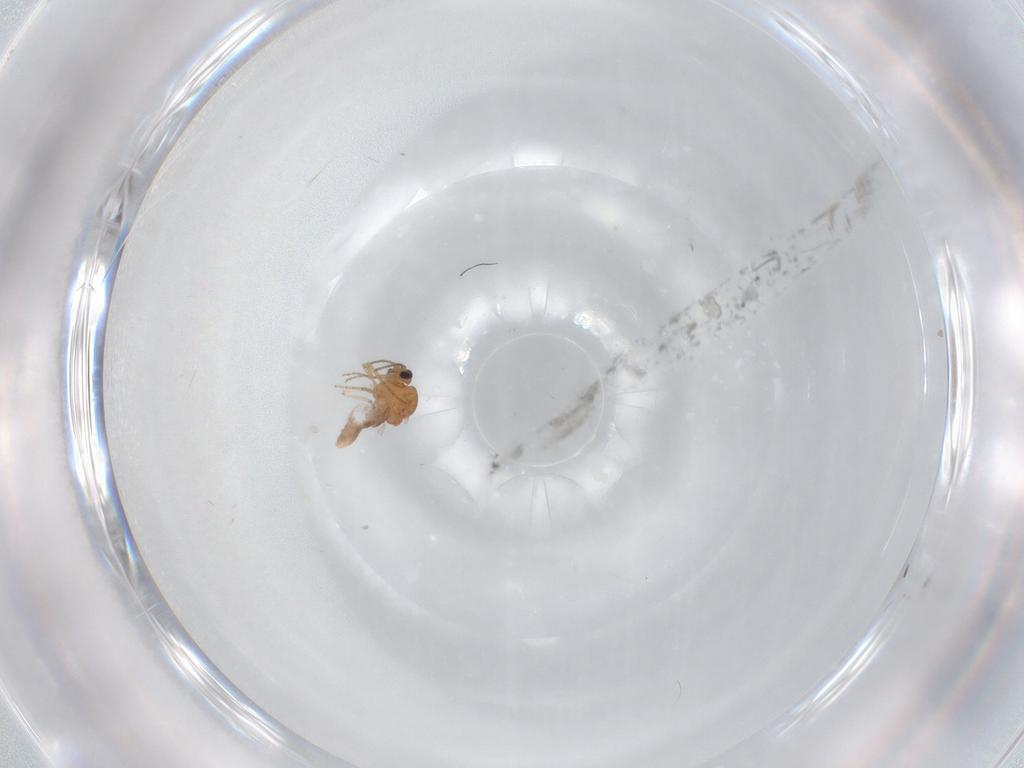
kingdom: Animalia
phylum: Arthropoda
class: Insecta
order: Diptera
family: Ceratopogonidae
